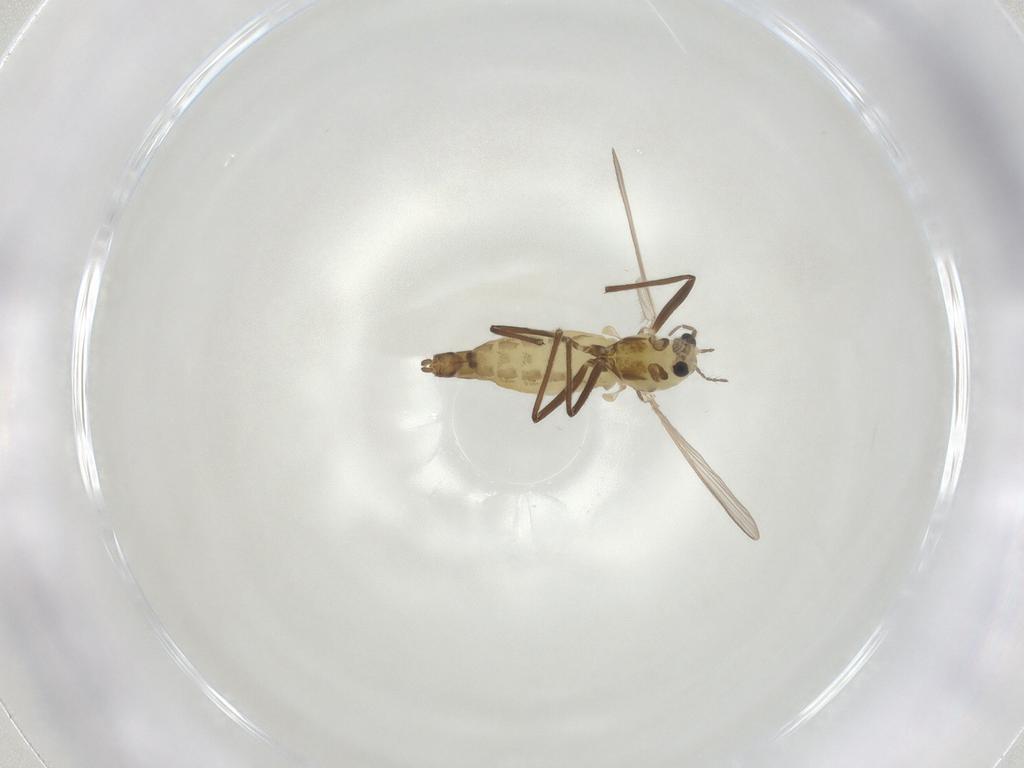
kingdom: Animalia
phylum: Arthropoda
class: Insecta
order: Diptera
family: Chironomidae
